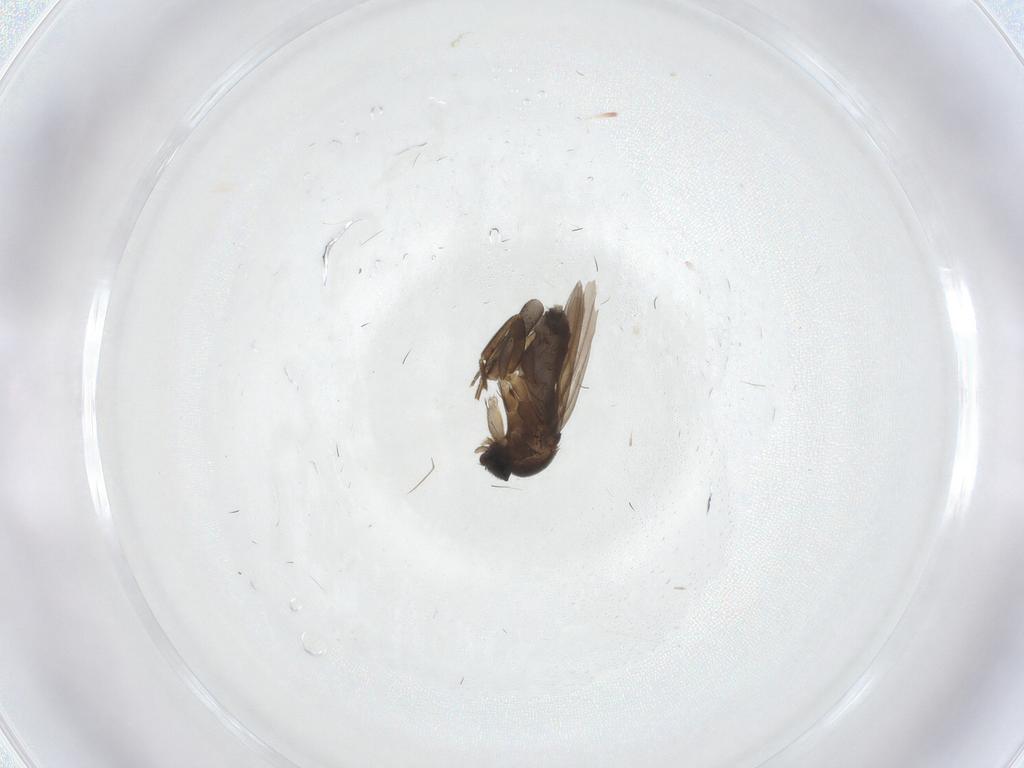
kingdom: Animalia
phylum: Arthropoda
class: Insecta
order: Diptera
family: Phoridae
